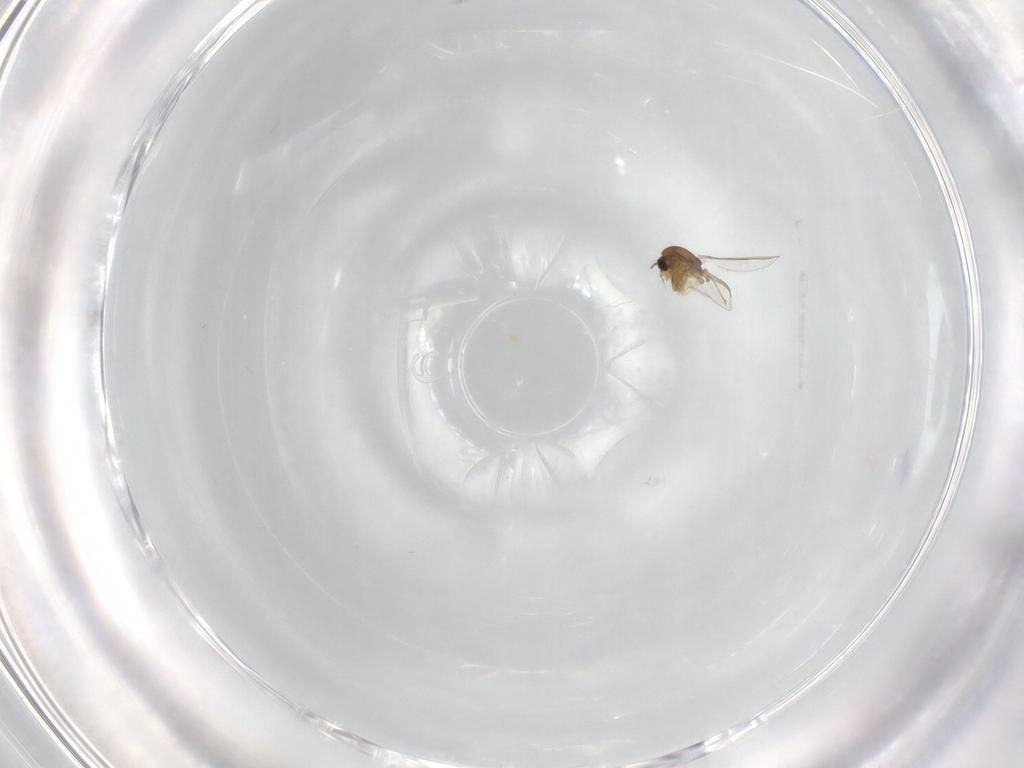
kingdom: Animalia
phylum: Arthropoda
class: Insecta
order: Diptera
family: Chironomidae
